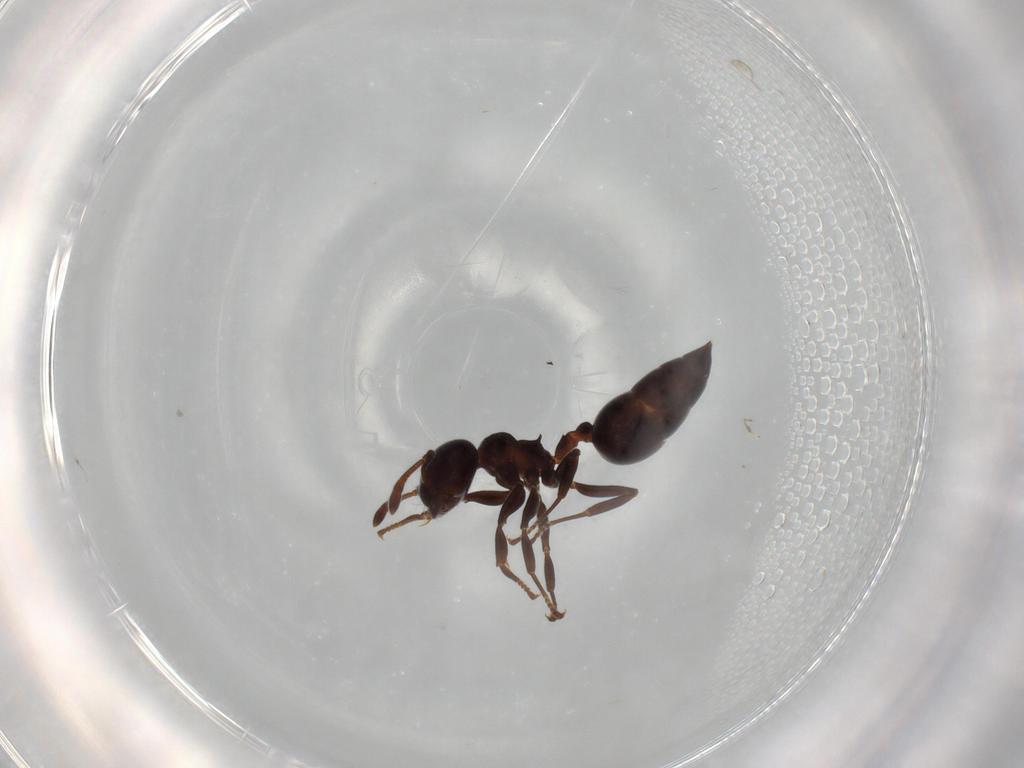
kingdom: Animalia
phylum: Arthropoda
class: Insecta
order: Hymenoptera
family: Formicidae
